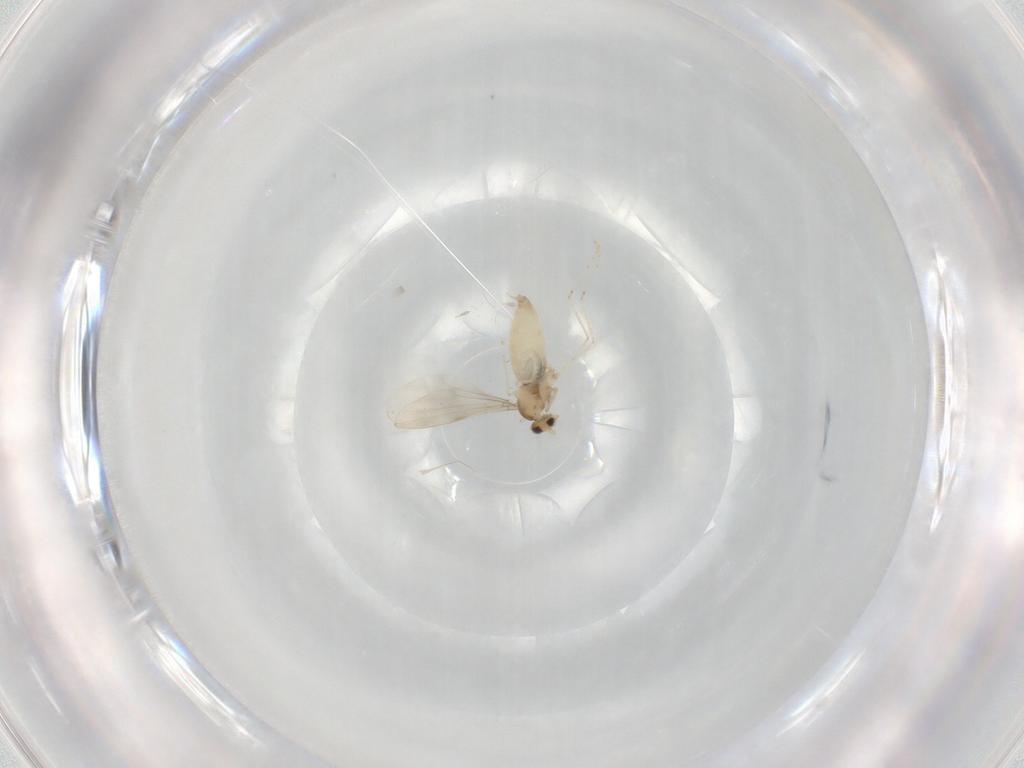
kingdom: Animalia
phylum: Arthropoda
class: Insecta
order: Diptera
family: Cecidomyiidae
